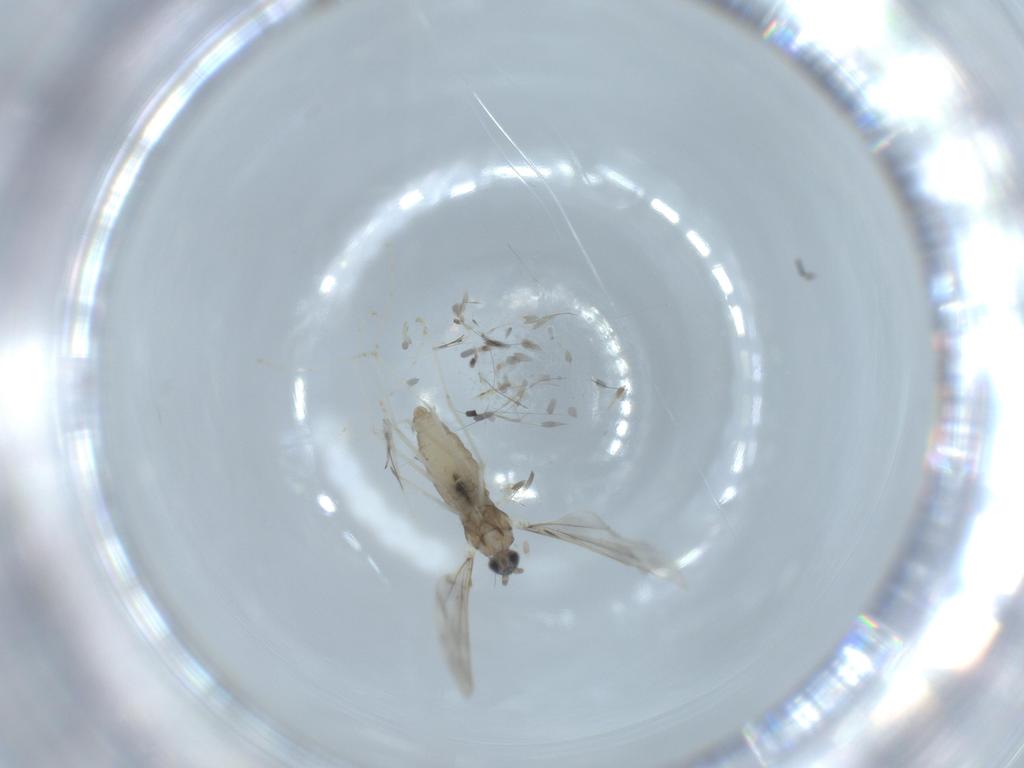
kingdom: Animalia
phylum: Arthropoda
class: Insecta
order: Diptera
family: Cecidomyiidae
